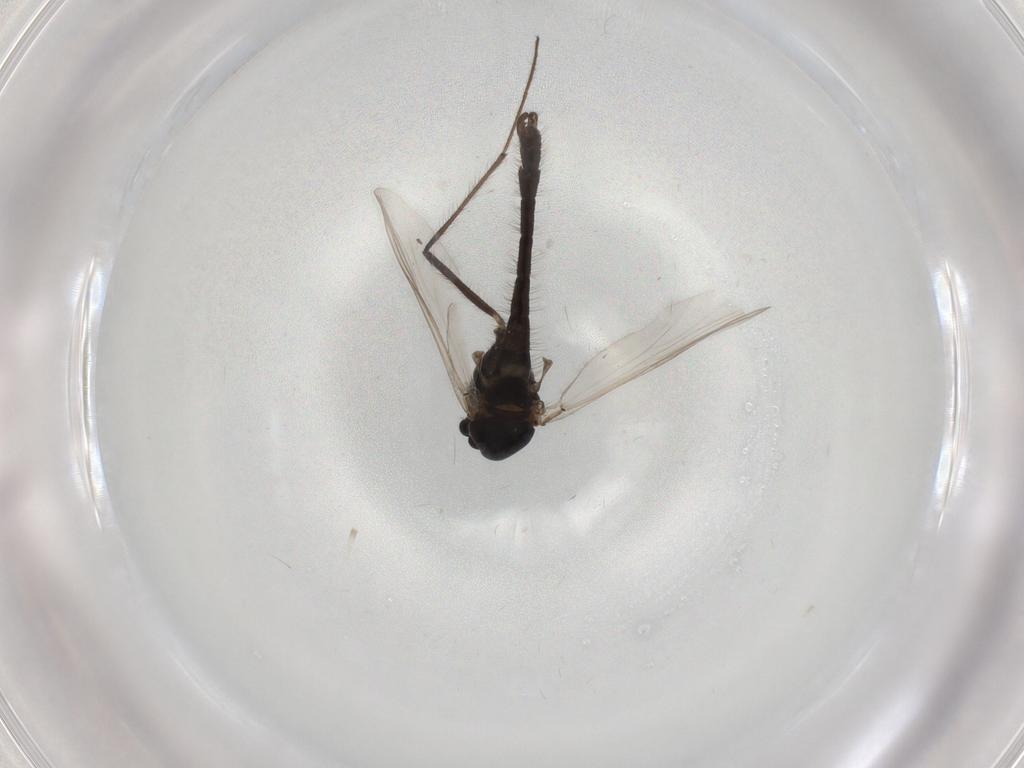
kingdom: Animalia
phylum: Arthropoda
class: Insecta
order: Diptera
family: Chironomidae
